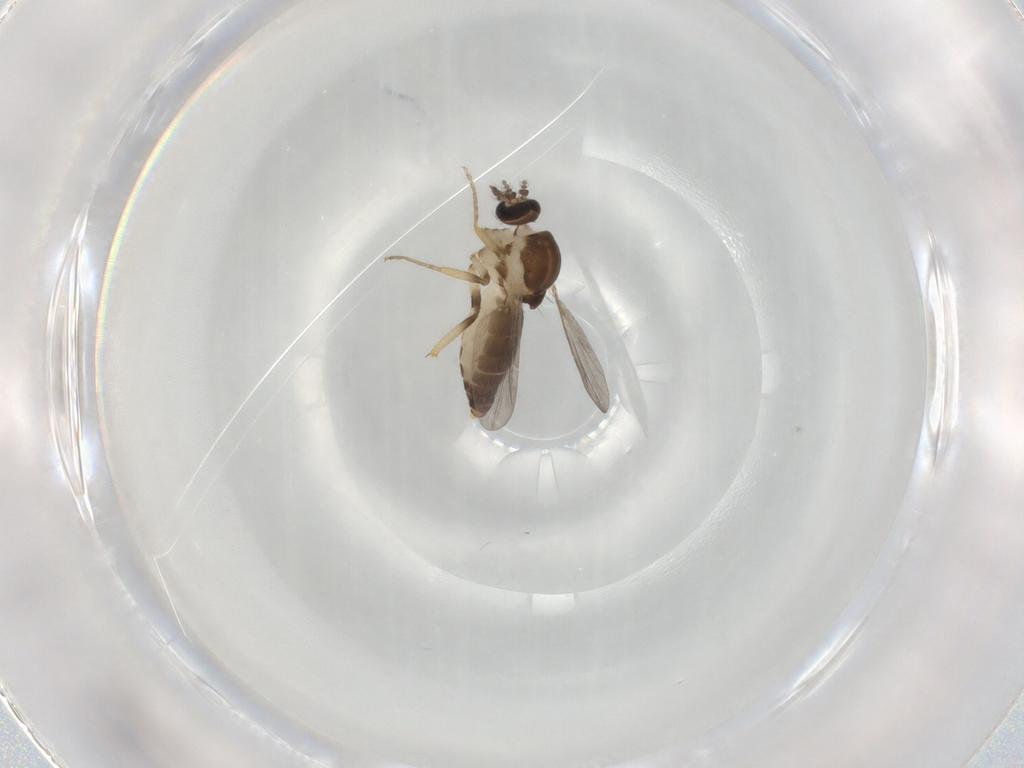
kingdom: Animalia
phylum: Arthropoda
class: Insecta
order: Diptera
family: Ceratopogonidae
